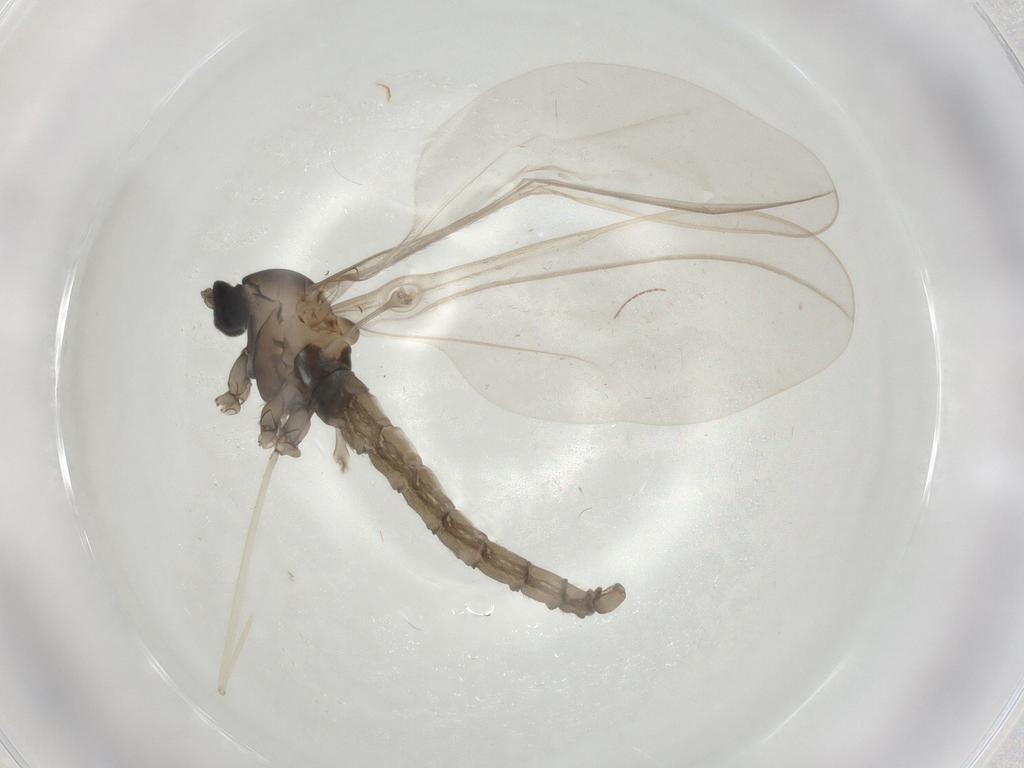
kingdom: Animalia
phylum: Arthropoda
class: Insecta
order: Diptera
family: Cecidomyiidae
